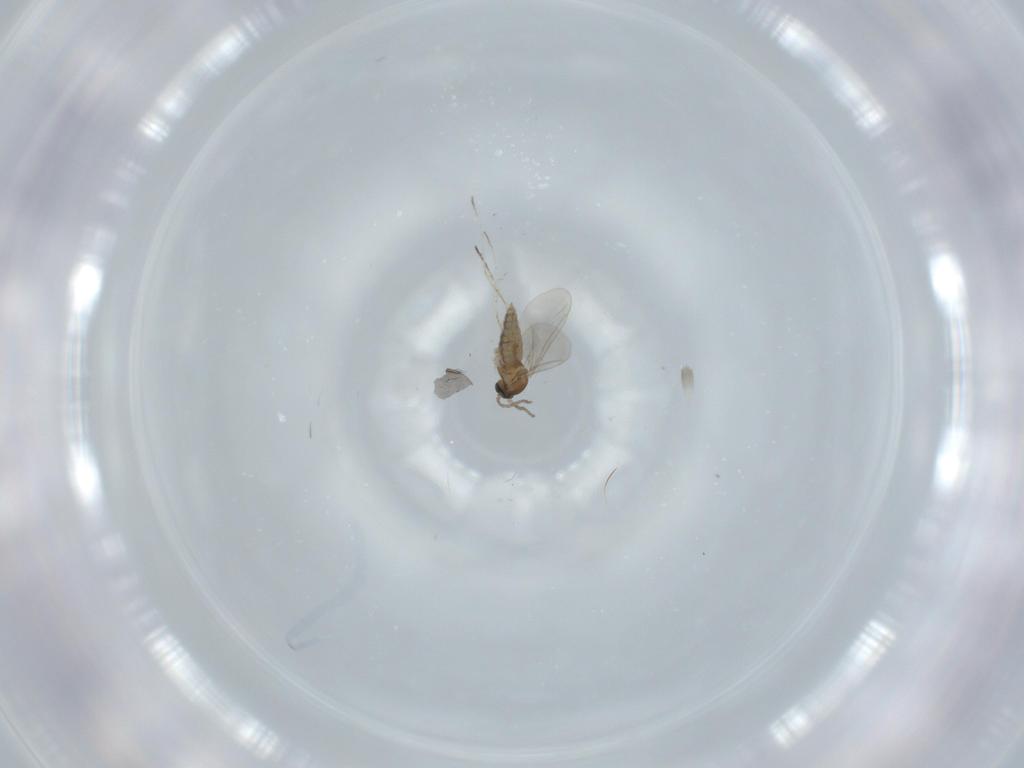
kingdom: Animalia
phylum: Arthropoda
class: Insecta
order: Diptera
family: Cecidomyiidae
